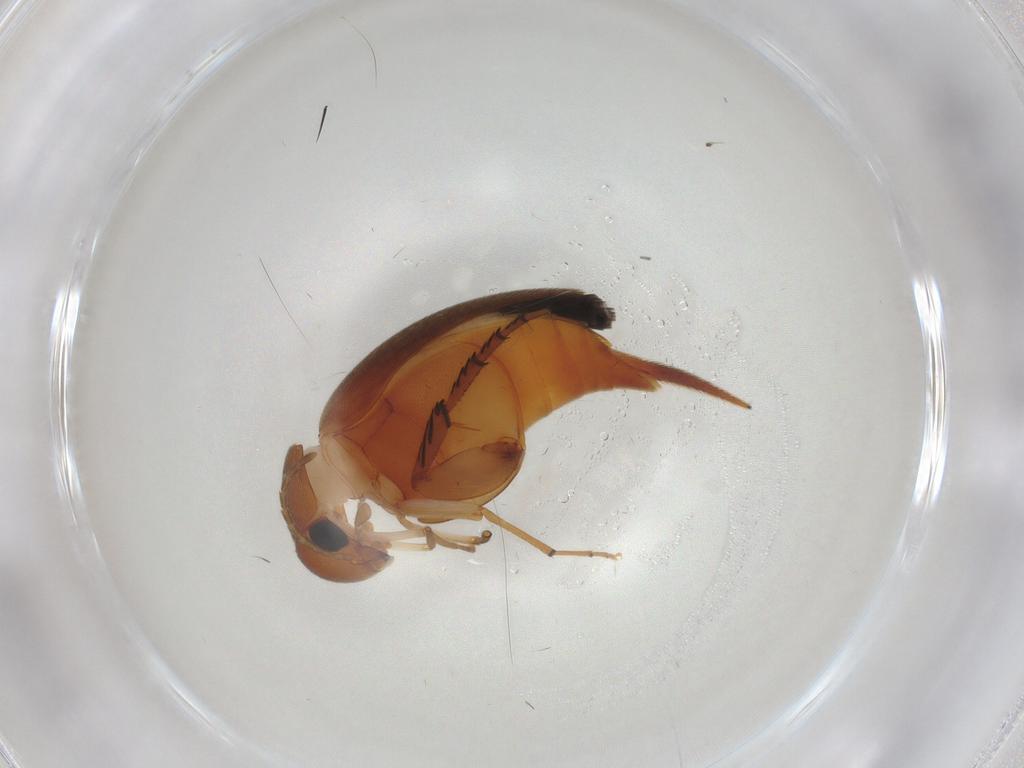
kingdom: Animalia
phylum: Arthropoda
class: Insecta
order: Coleoptera
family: Mordellidae
